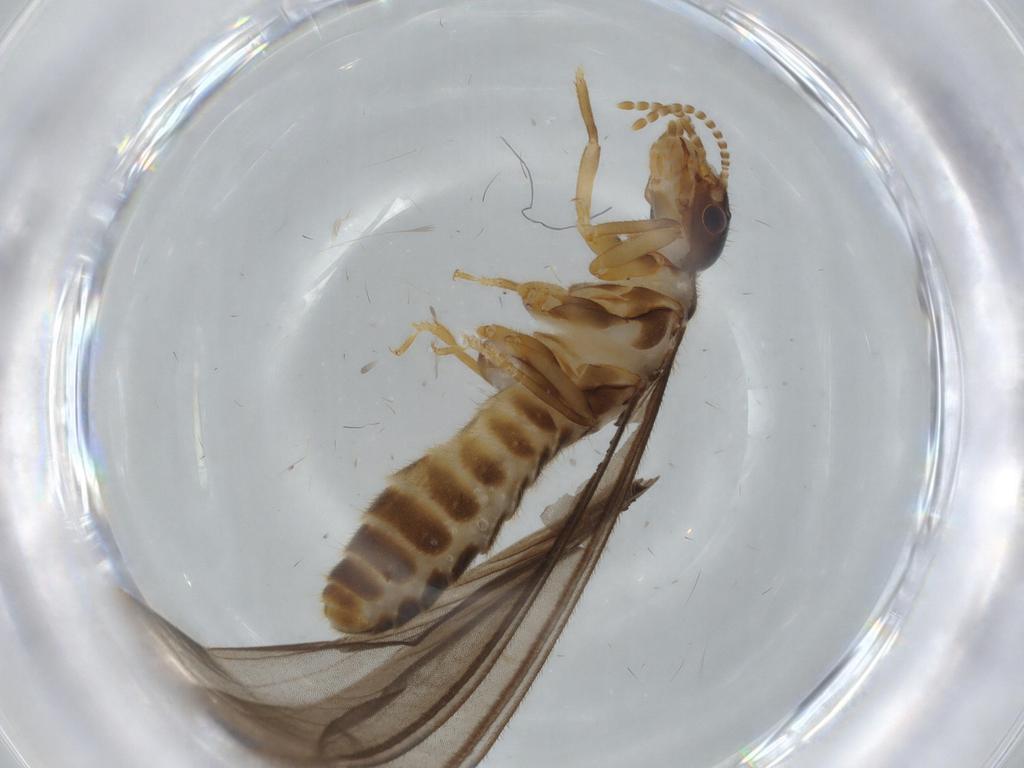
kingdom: Animalia
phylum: Arthropoda
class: Insecta
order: Blattodea
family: Termitidae
